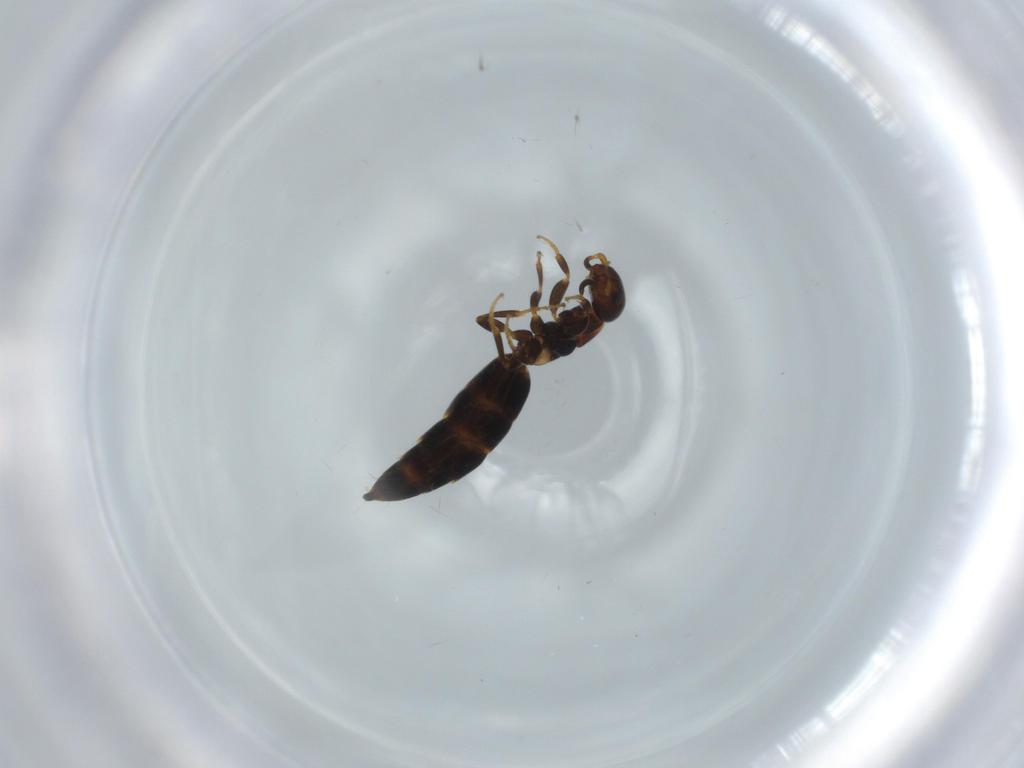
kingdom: Animalia
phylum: Arthropoda
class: Insecta
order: Hymenoptera
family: Bethylidae
